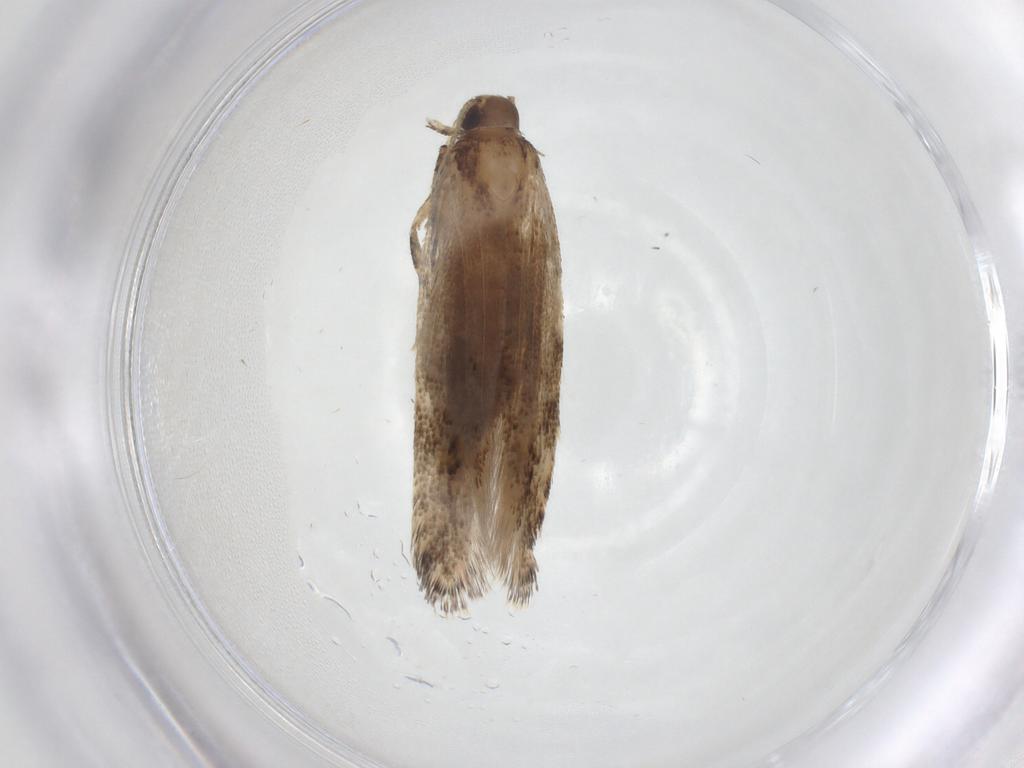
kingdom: Animalia
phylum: Arthropoda
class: Insecta
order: Lepidoptera
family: Gelechiidae
